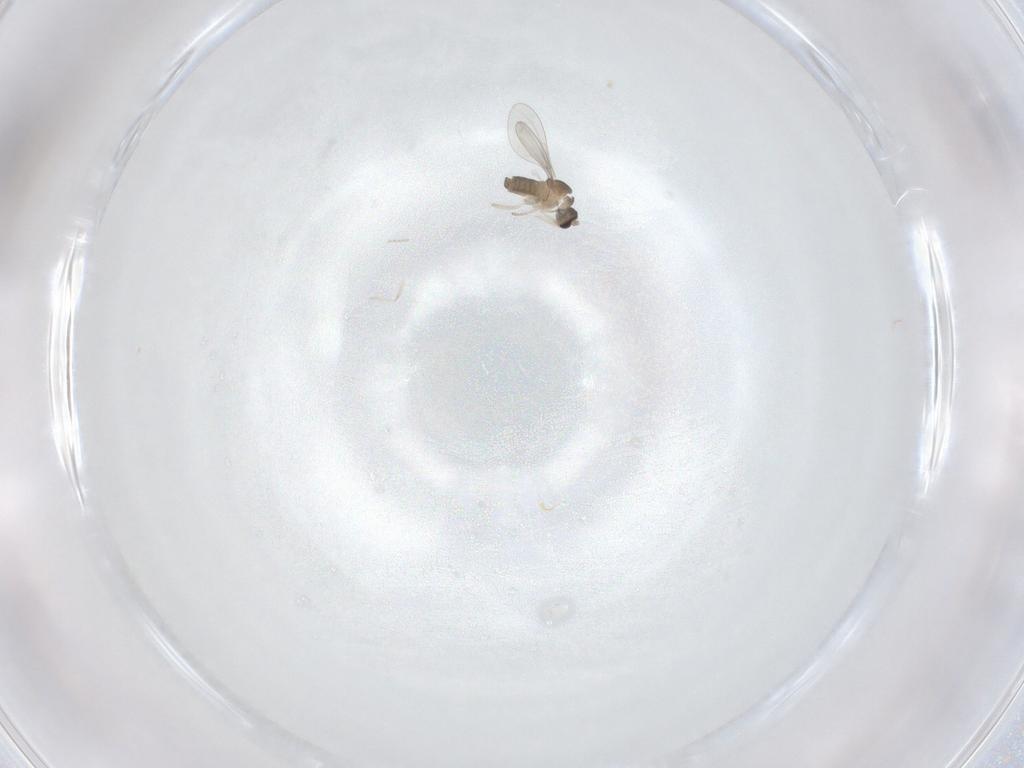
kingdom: Animalia
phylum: Arthropoda
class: Insecta
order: Diptera
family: Cecidomyiidae
